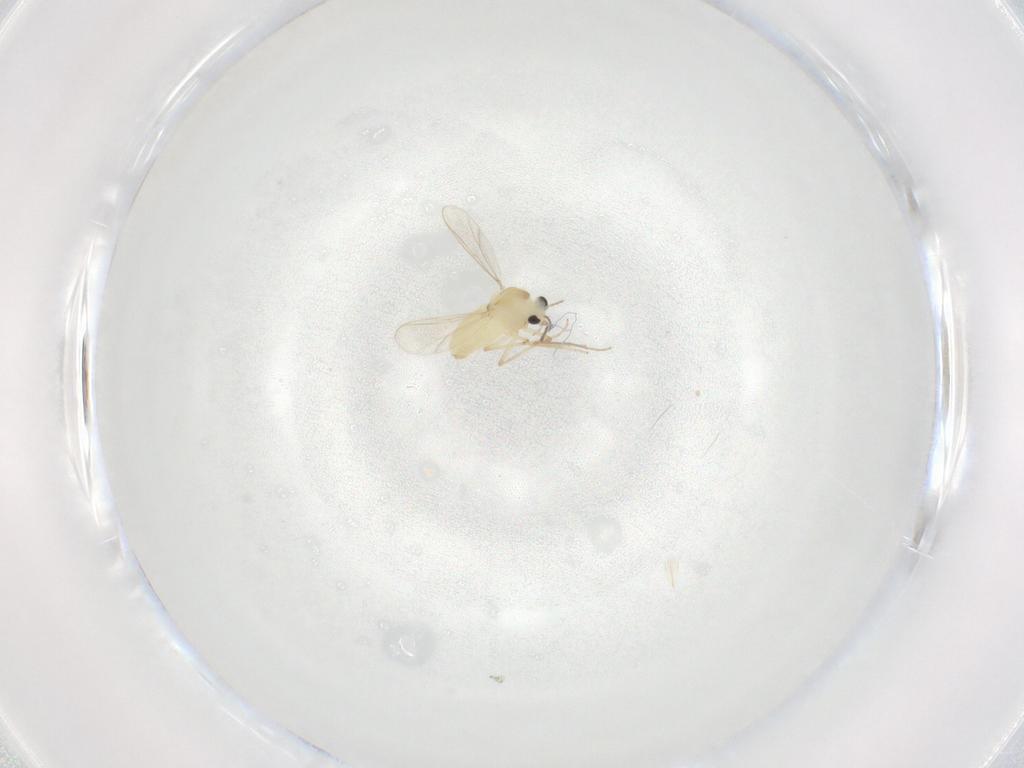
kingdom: Animalia
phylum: Arthropoda
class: Insecta
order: Diptera
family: Chironomidae
